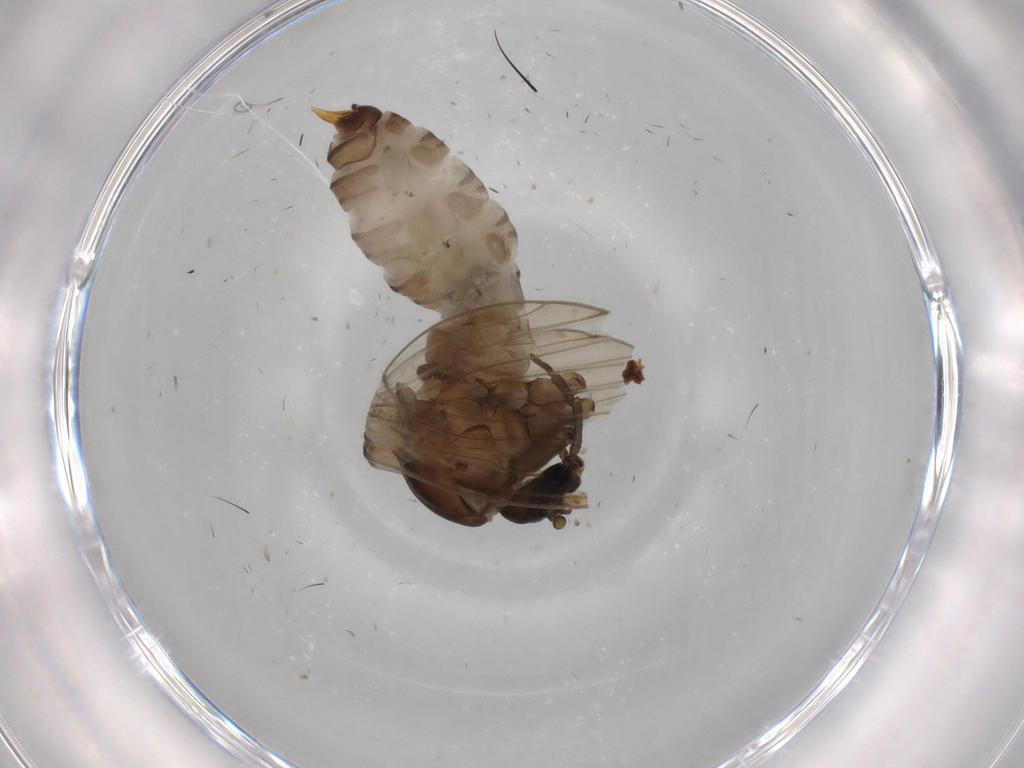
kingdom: Animalia
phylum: Arthropoda
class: Insecta
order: Diptera
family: Psychodidae
